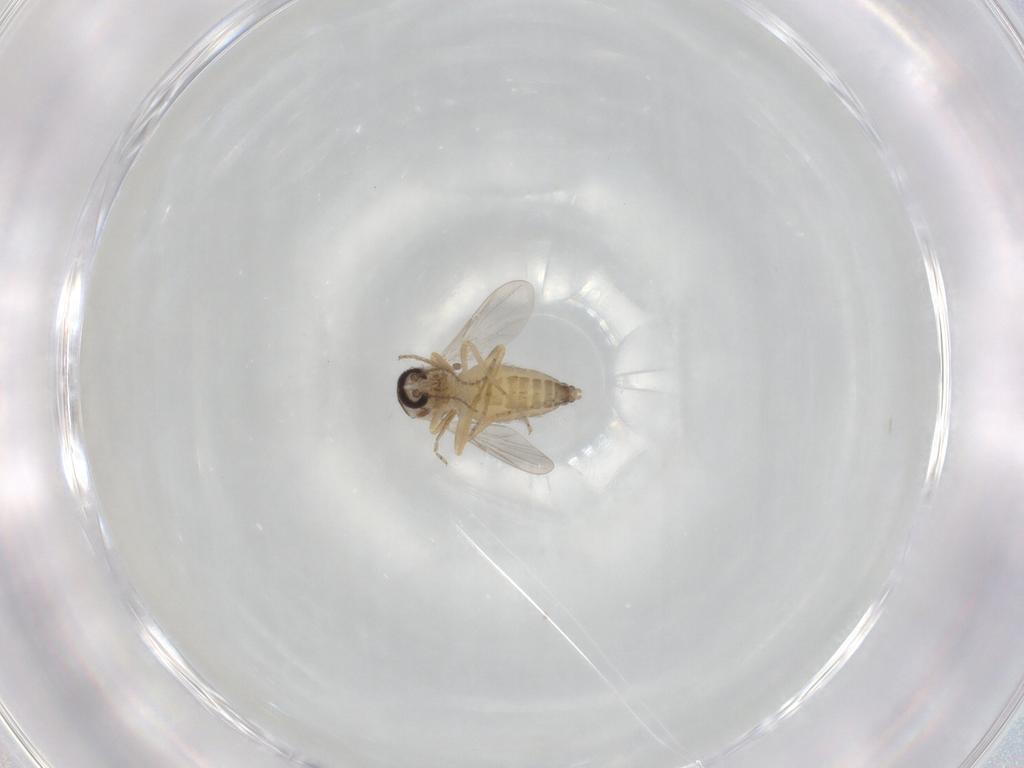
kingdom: Animalia
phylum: Arthropoda
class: Insecta
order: Diptera
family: Ceratopogonidae
